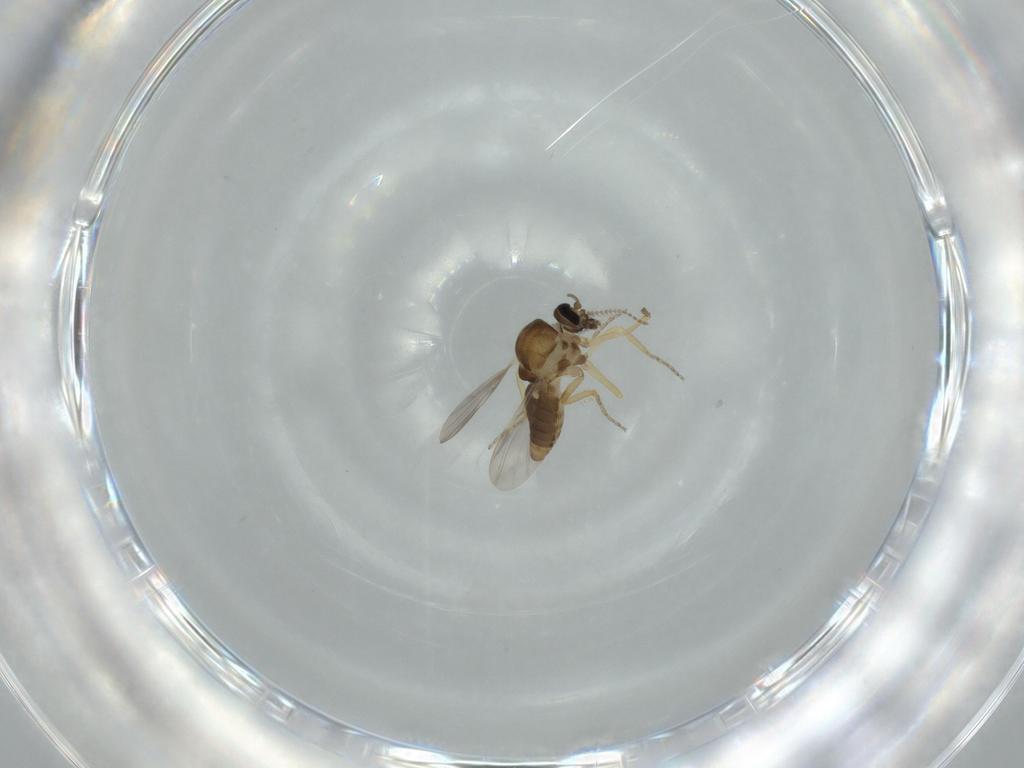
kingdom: Animalia
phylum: Arthropoda
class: Insecta
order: Diptera
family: Ceratopogonidae
